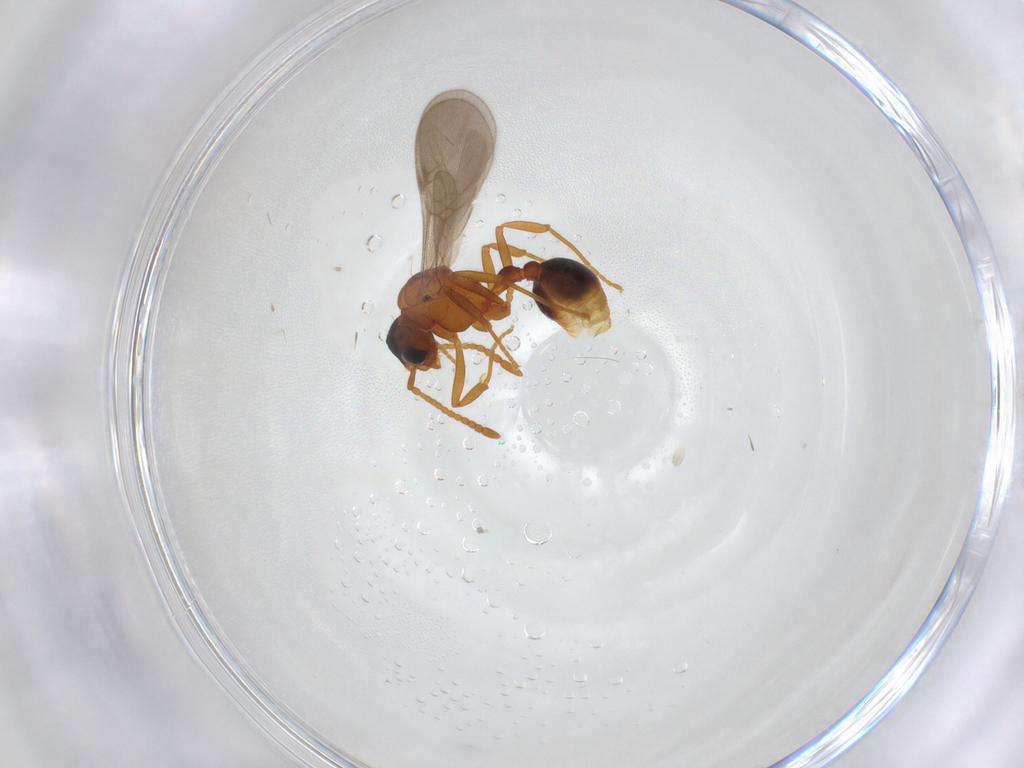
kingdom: Animalia
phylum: Arthropoda
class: Insecta
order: Hymenoptera
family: Formicidae
